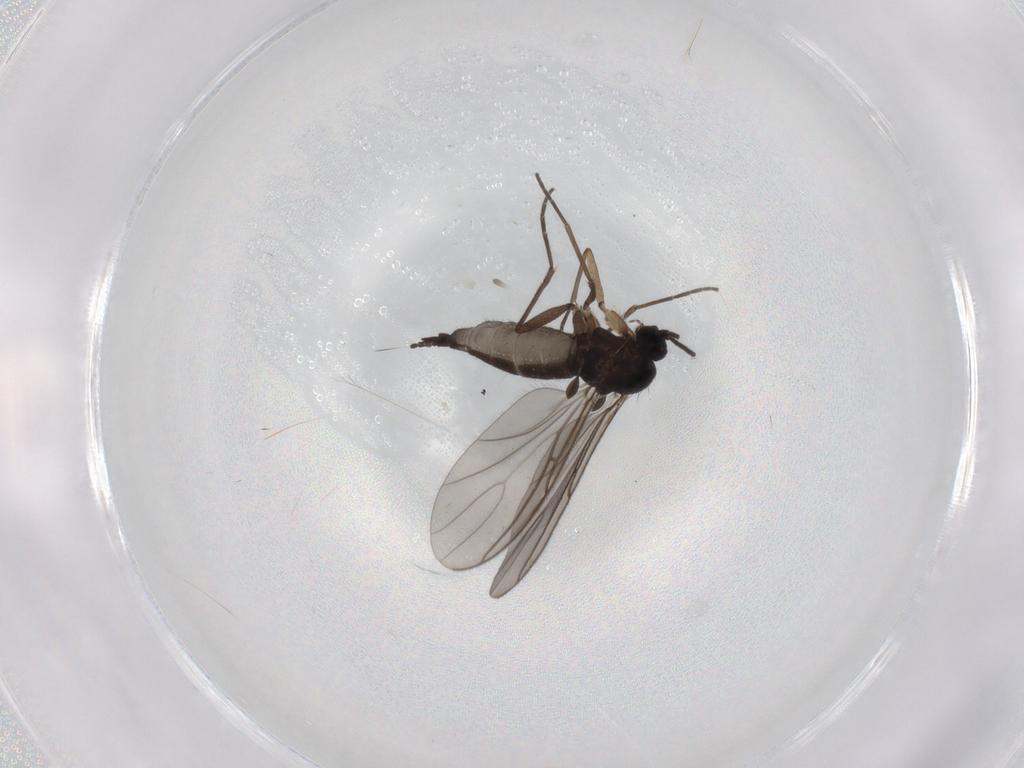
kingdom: Animalia
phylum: Arthropoda
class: Insecta
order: Diptera
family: Sciaridae
